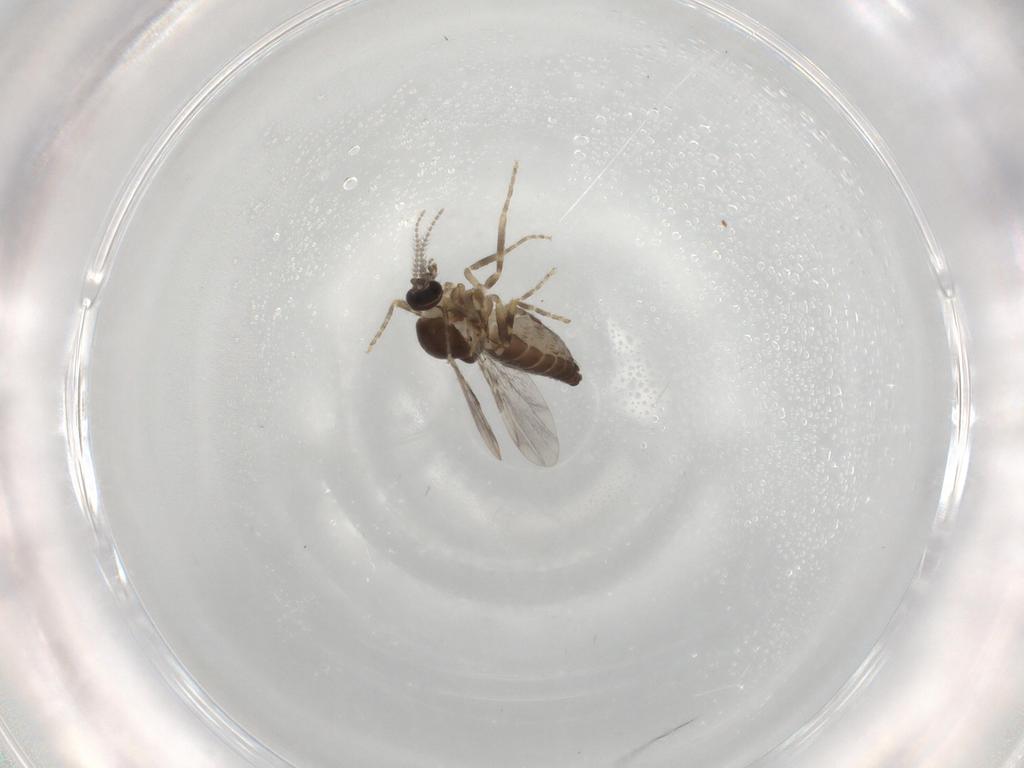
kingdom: Animalia
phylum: Arthropoda
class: Insecta
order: Diptera
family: Ceratopogonidae
